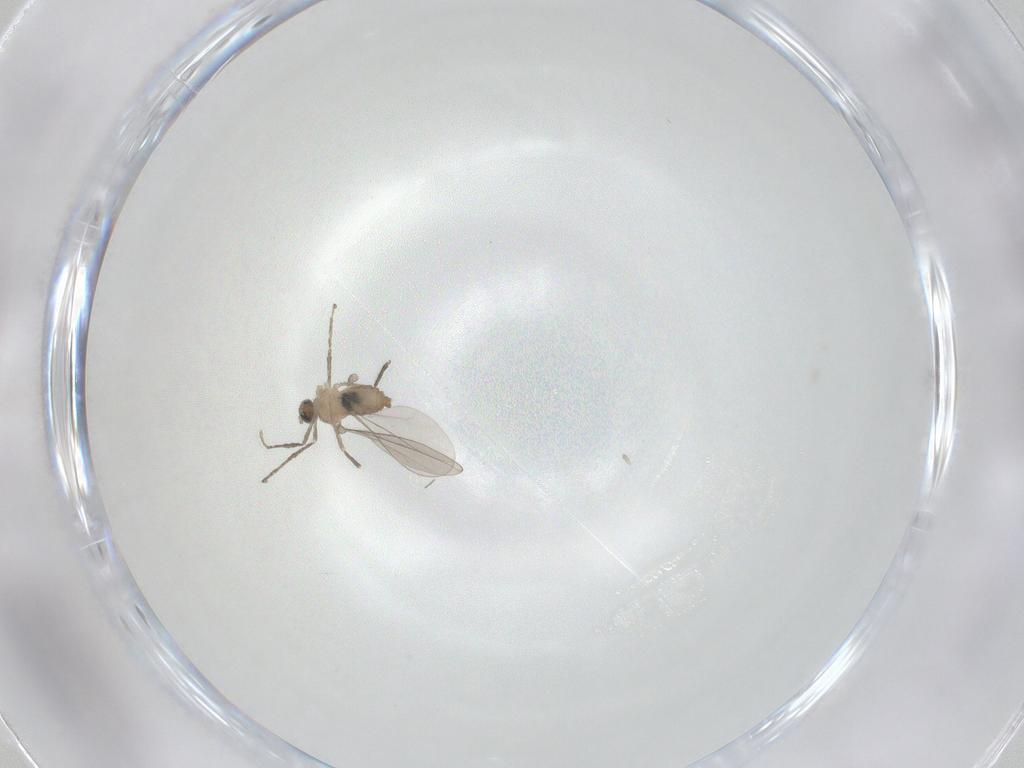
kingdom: Animalia
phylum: Arthropoda
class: Insecta
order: Diptera
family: Cecidomyiidae
